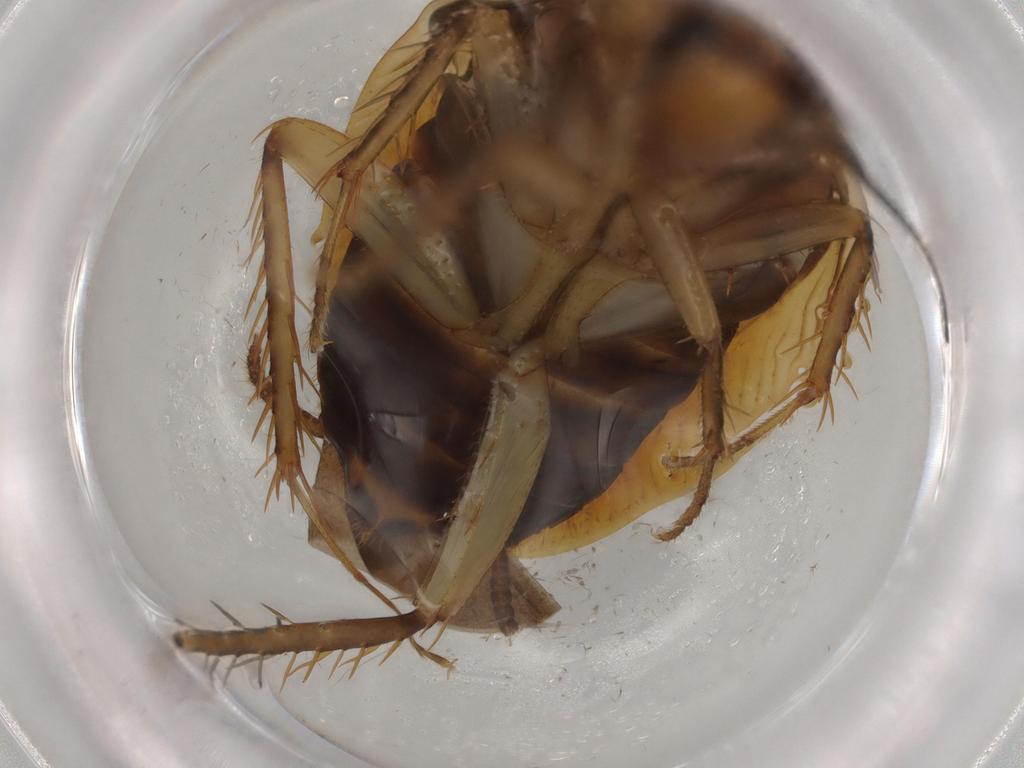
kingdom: Animalia
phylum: Arthropoda
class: Insecta
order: Blattodea
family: Ectobiidae
